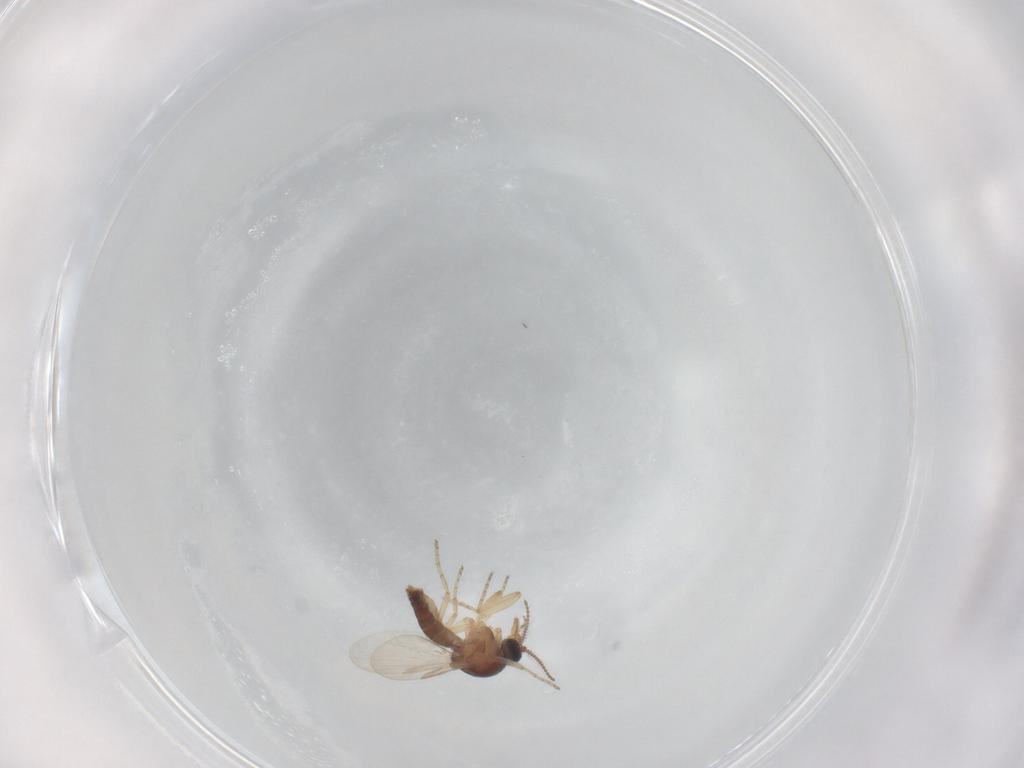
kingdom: Animalia
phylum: Arthropoda
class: Insecta
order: Diptera
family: Ceratopogonidae
